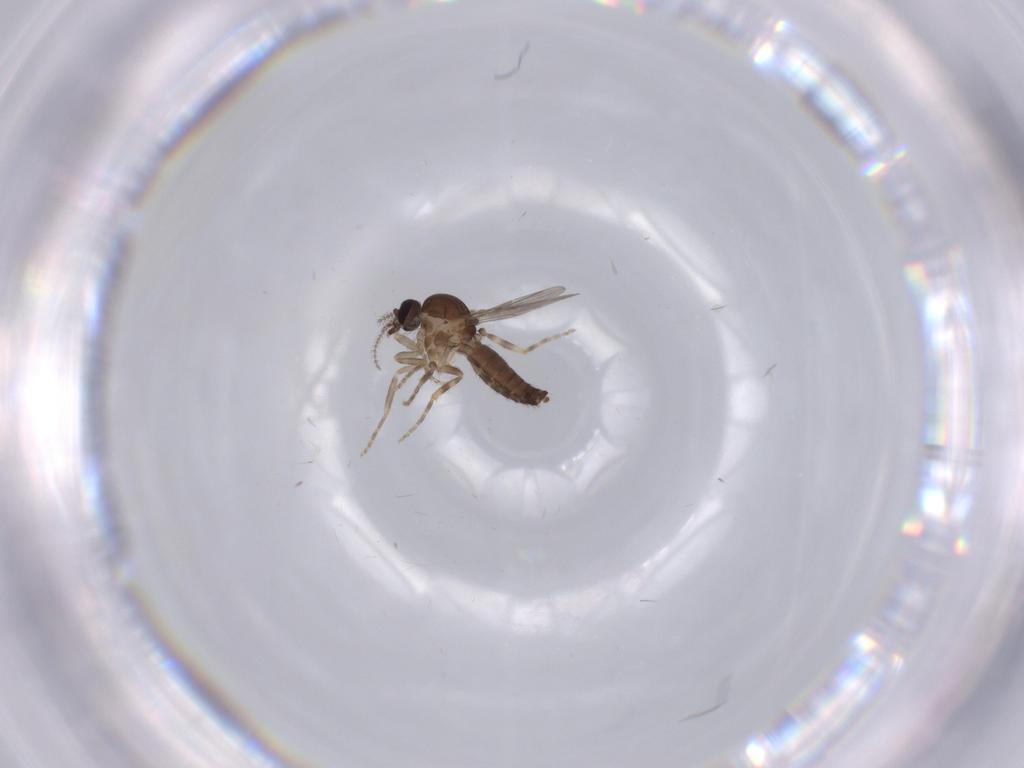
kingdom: Animalia
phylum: Arthropoda
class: Insecta
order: Diptera
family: Ceratopogonidae
